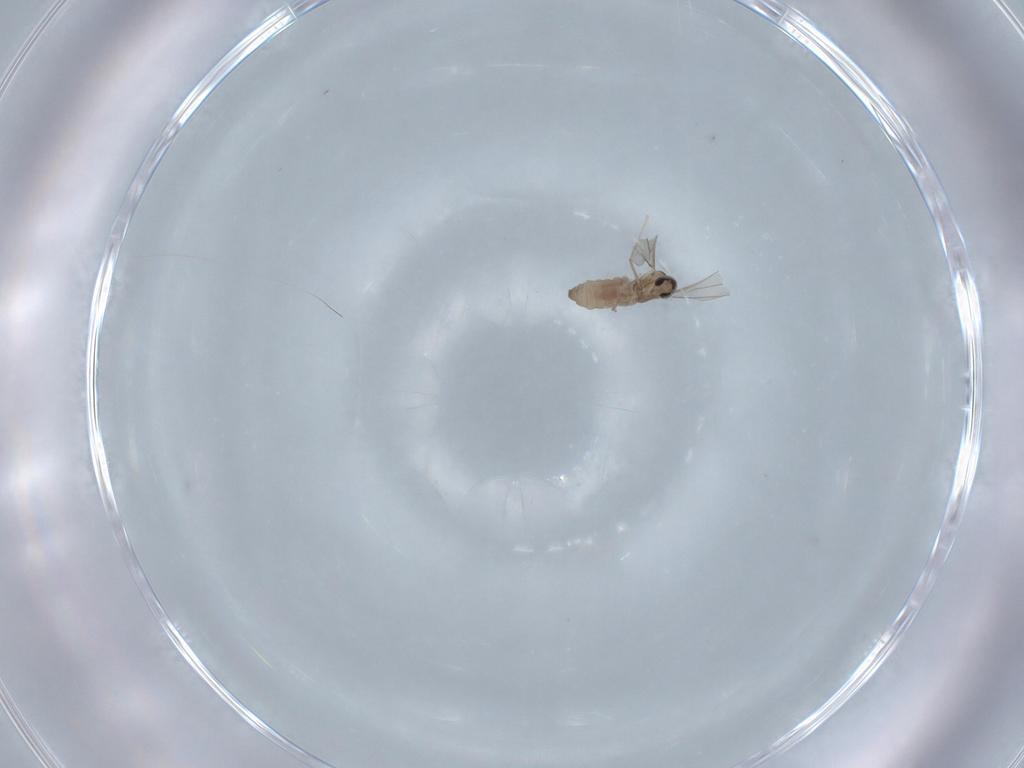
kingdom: Animalia
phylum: Arthropoda
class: Insecta
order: Diptera
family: Cecidomyiidae
